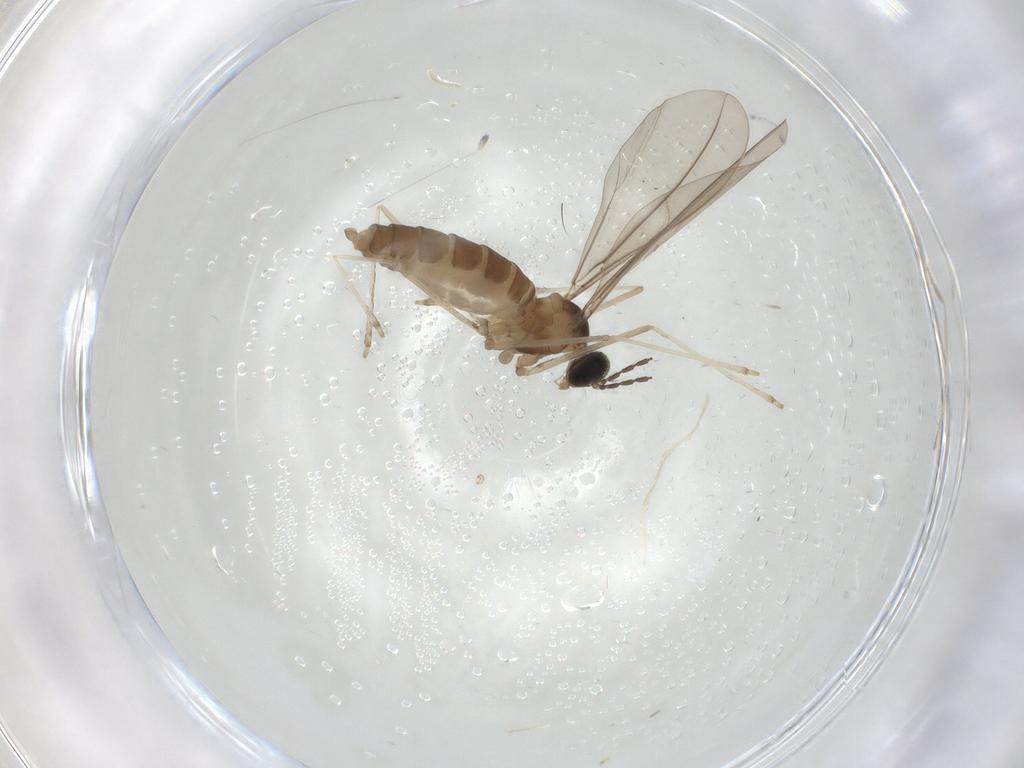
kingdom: Animalia
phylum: Arthropoda
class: Insecta
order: Diptera
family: Cecidomyiidae
